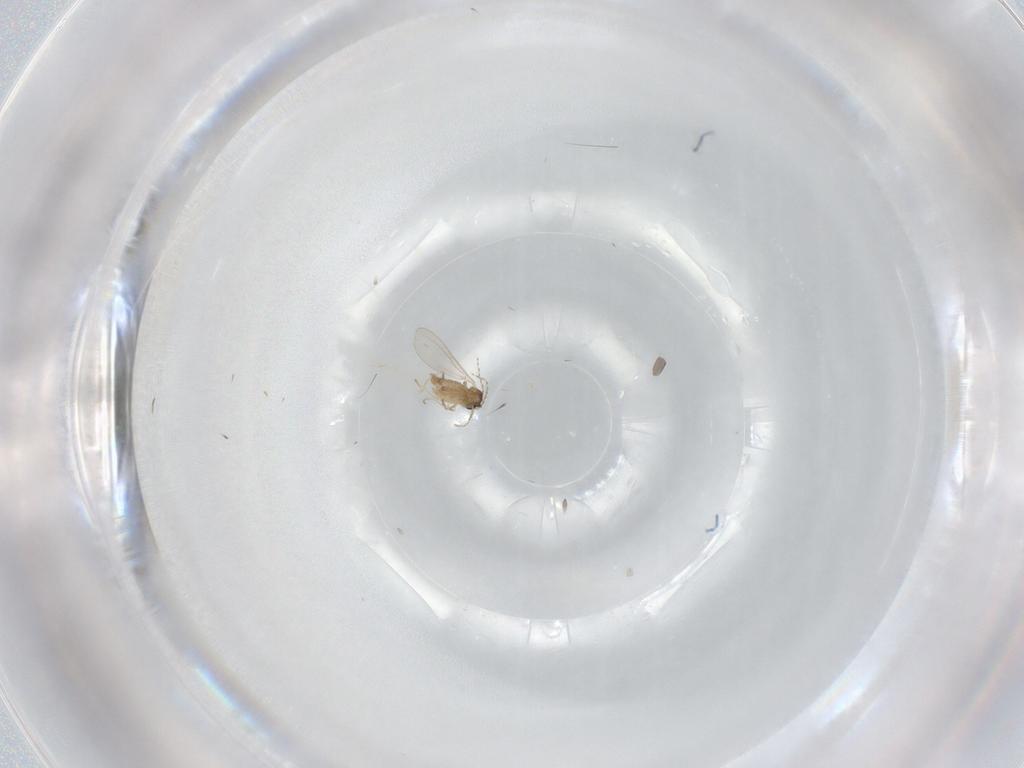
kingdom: Animalia
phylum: Arthropoda
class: Insecta
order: Diptera
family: Cecidomyiidae
